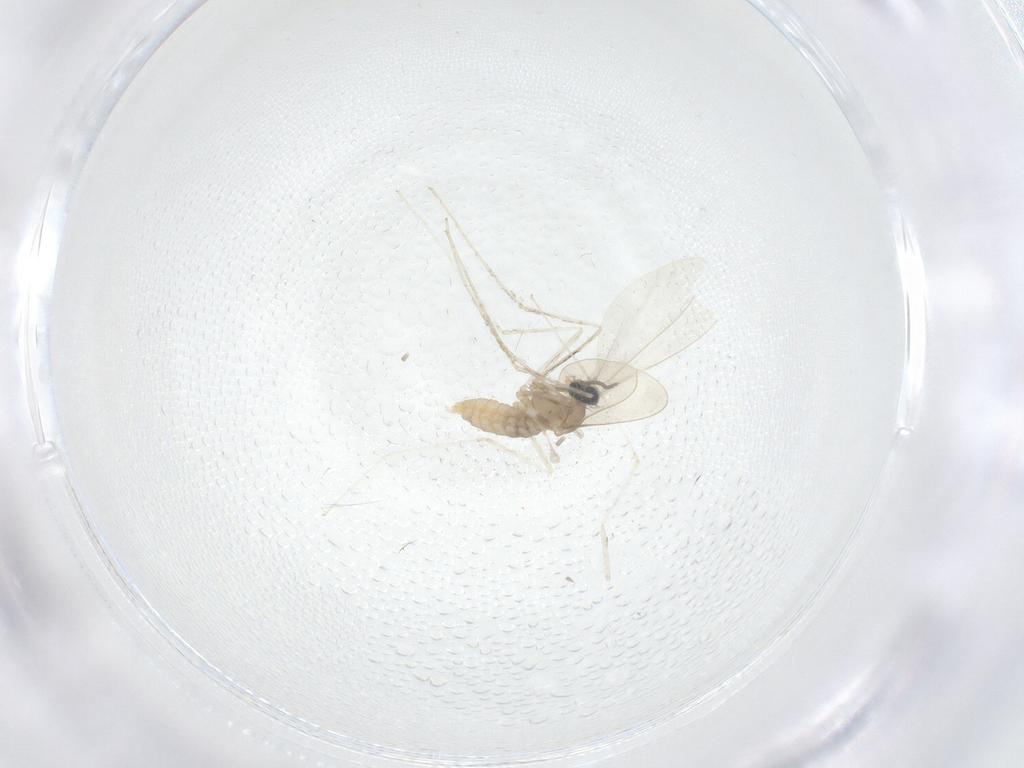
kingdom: Animalia
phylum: Arthropoda
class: Insecta
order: Diptera
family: Cecidomyiidae
